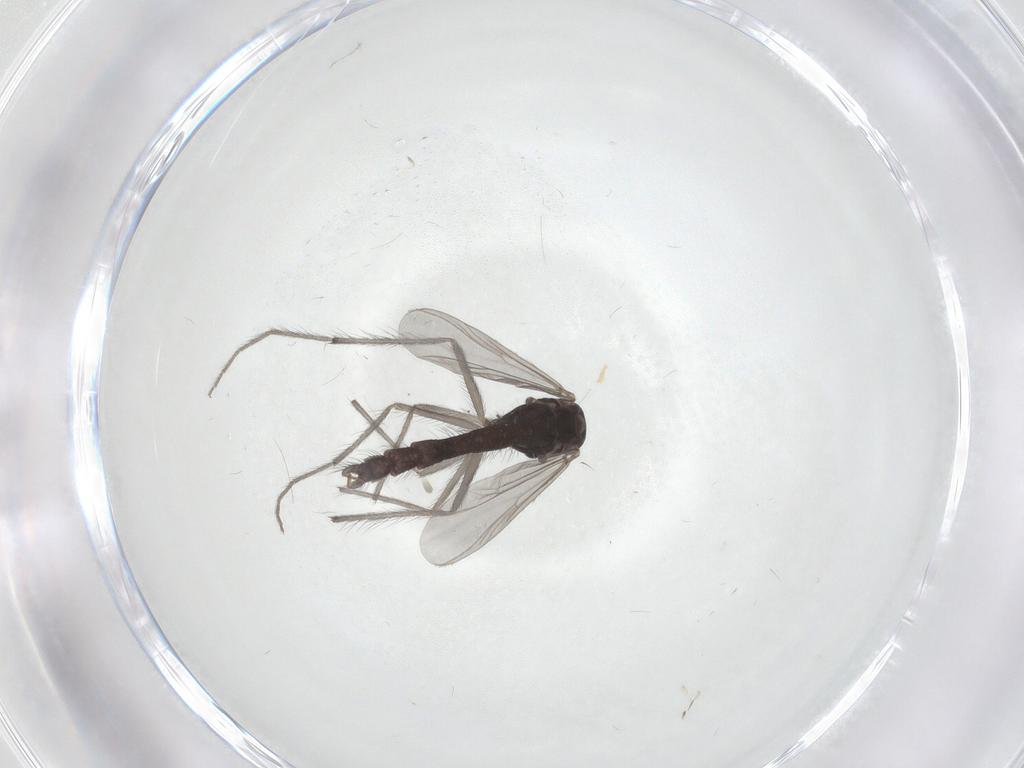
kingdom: Animalia
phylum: Arthropoda
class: Insecta
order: Diptera
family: Chironomidae
